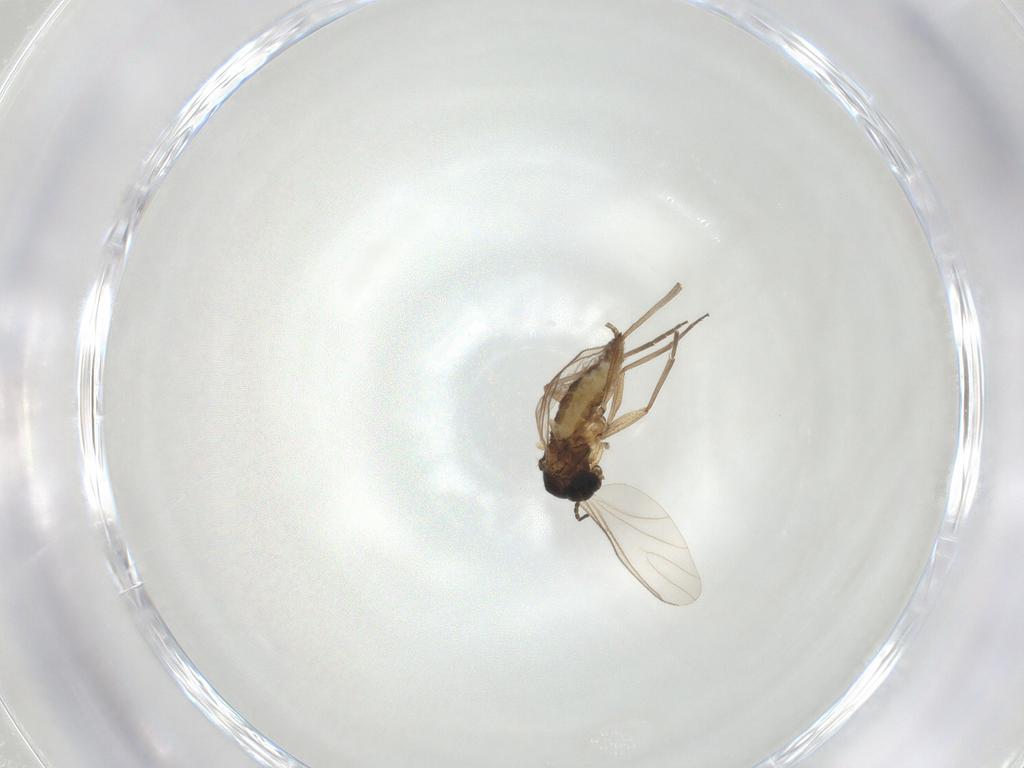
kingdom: Animalia
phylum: Arthropoda
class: Insecta
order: Diptera
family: Sciaridae
